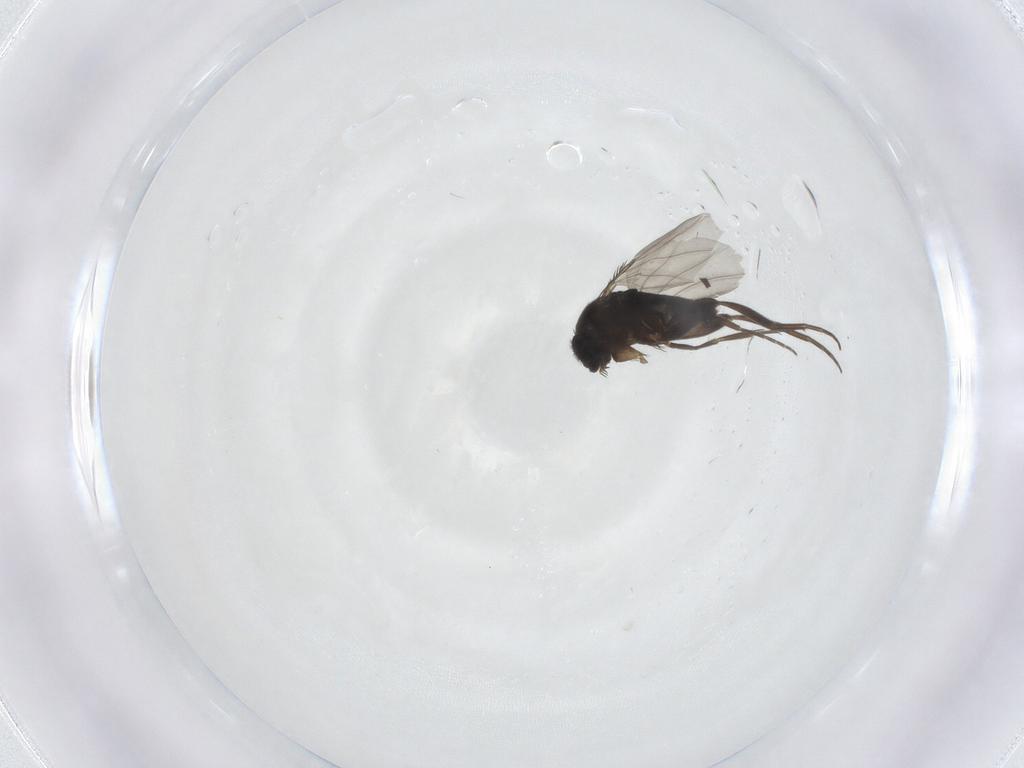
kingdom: Animalia
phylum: Arthropoda
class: Insecta
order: Diptera
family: Cecidomyiidae
